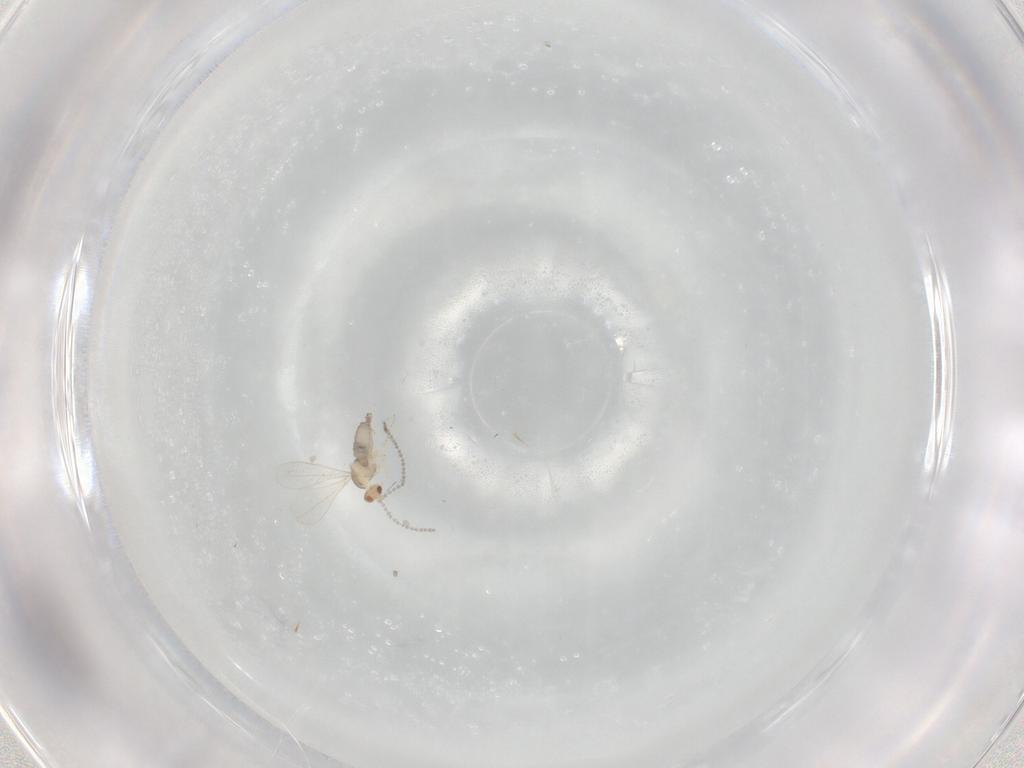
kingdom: Animalia
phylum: Arthropoda
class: Insecta
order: Diptera
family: Cecidomyiidae
